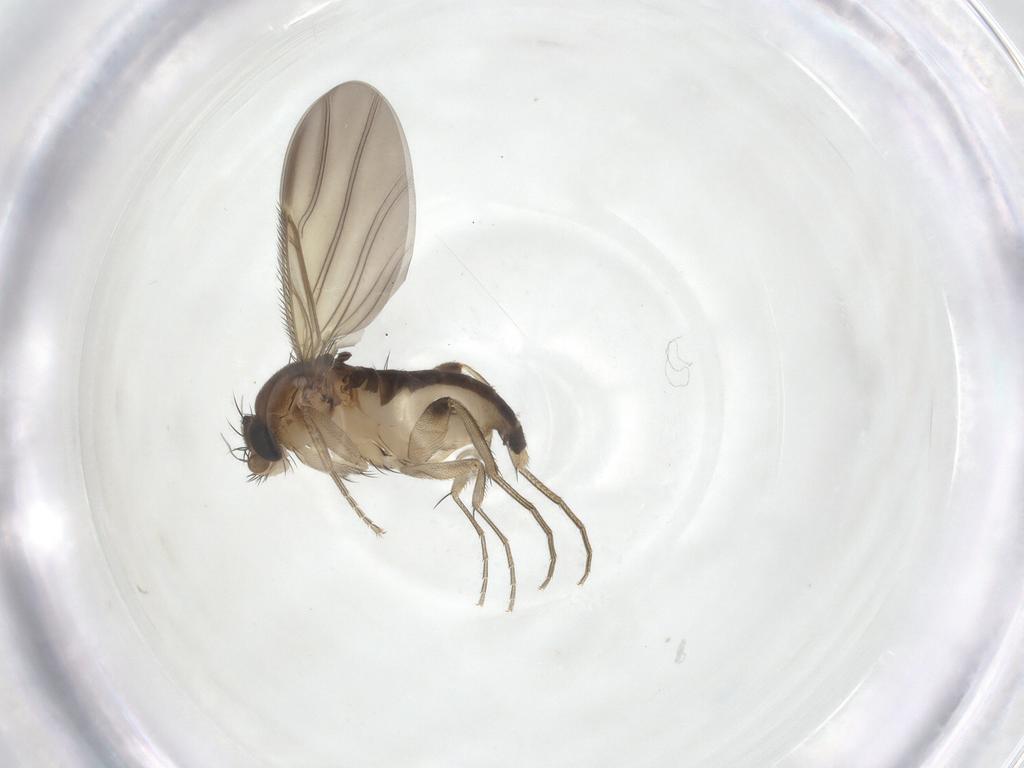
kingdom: Animalia
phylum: Arthropoda
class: Insecta
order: Diptera
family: Phoridae
